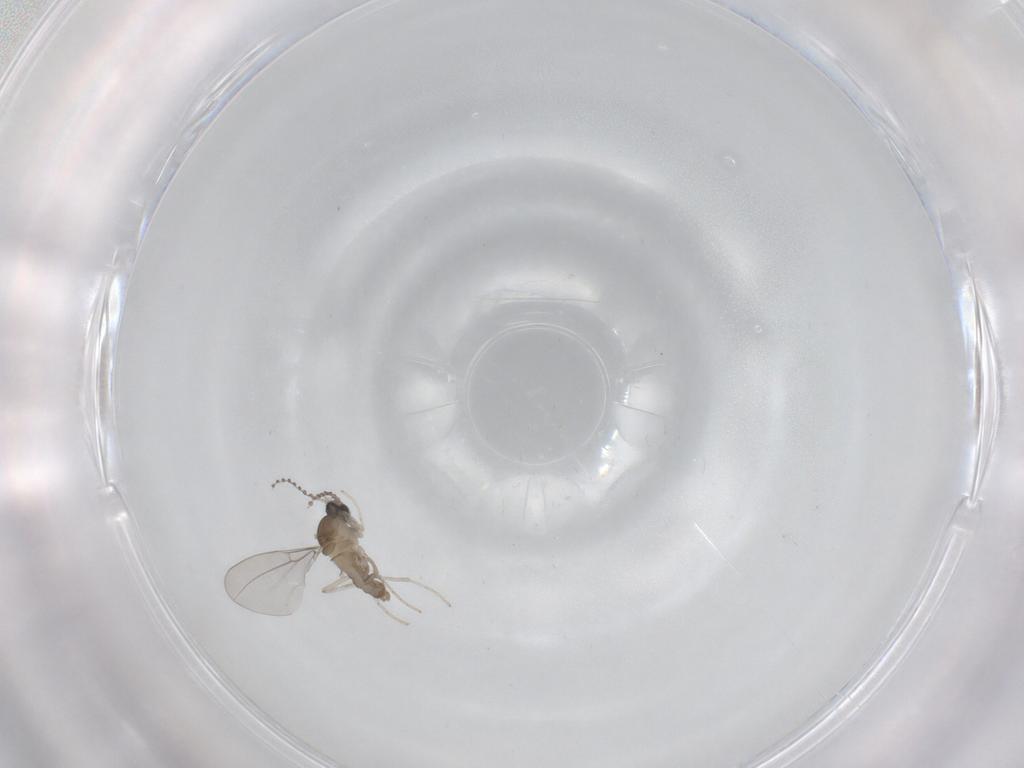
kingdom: Animalia
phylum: Arthropoda
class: Insecta
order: Diptera
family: Cecidomyiidae
